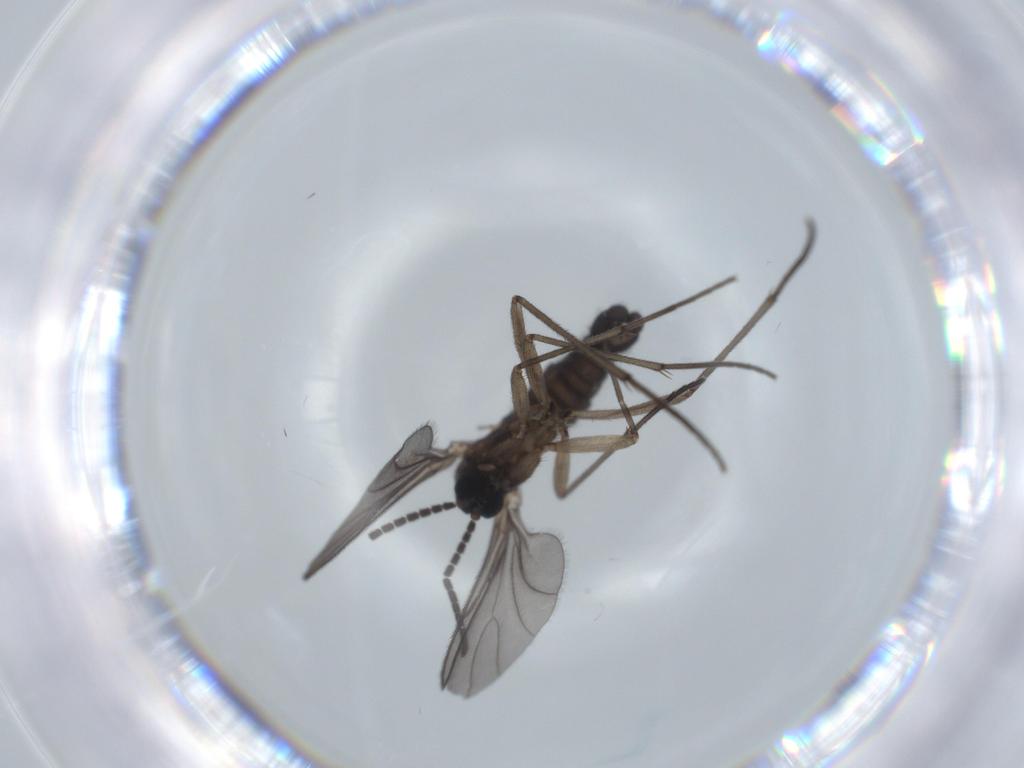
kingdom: Animalia
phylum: Arthropoda
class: Insecta
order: Diptera
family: Sciaridae
